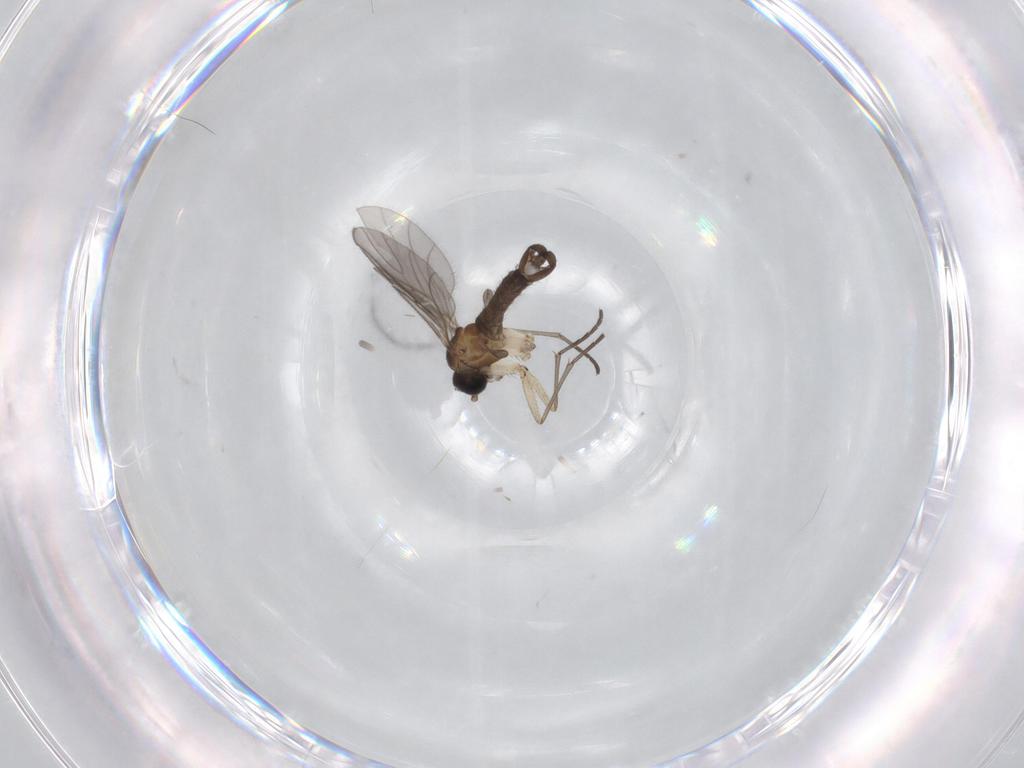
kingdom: Animalia
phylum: Arthropoda
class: Insecta
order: Diptera
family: Sciaridae
